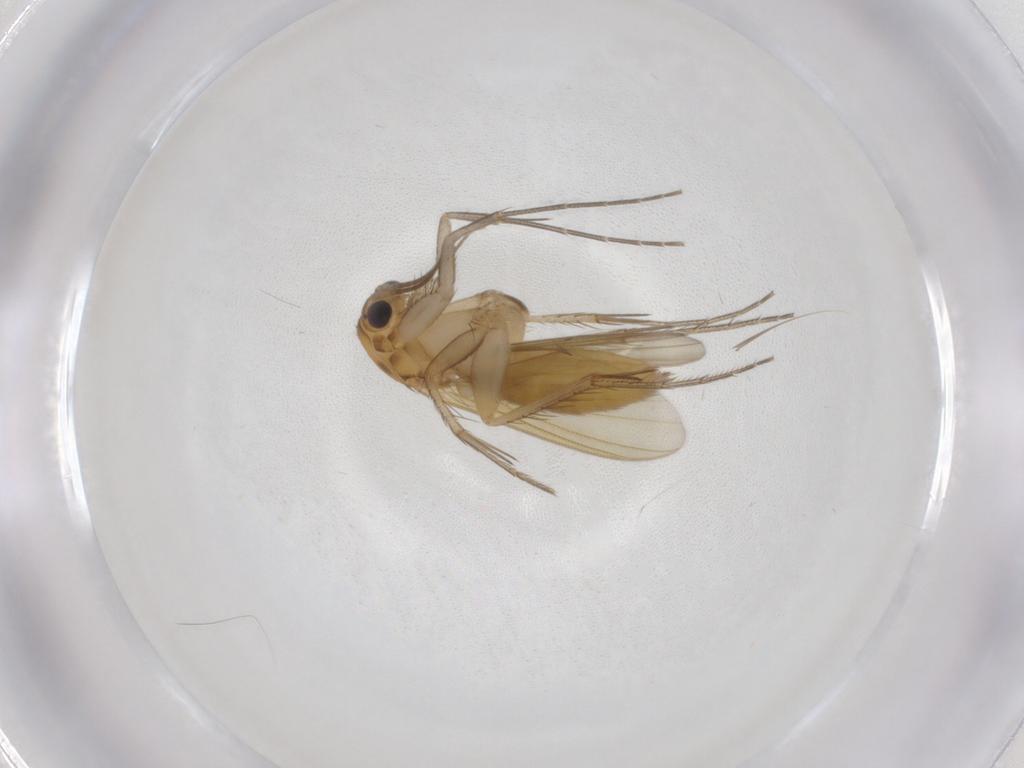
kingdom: Animalia
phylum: Arthropoda
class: Insecta
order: Diptera
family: Mycetophilidae
